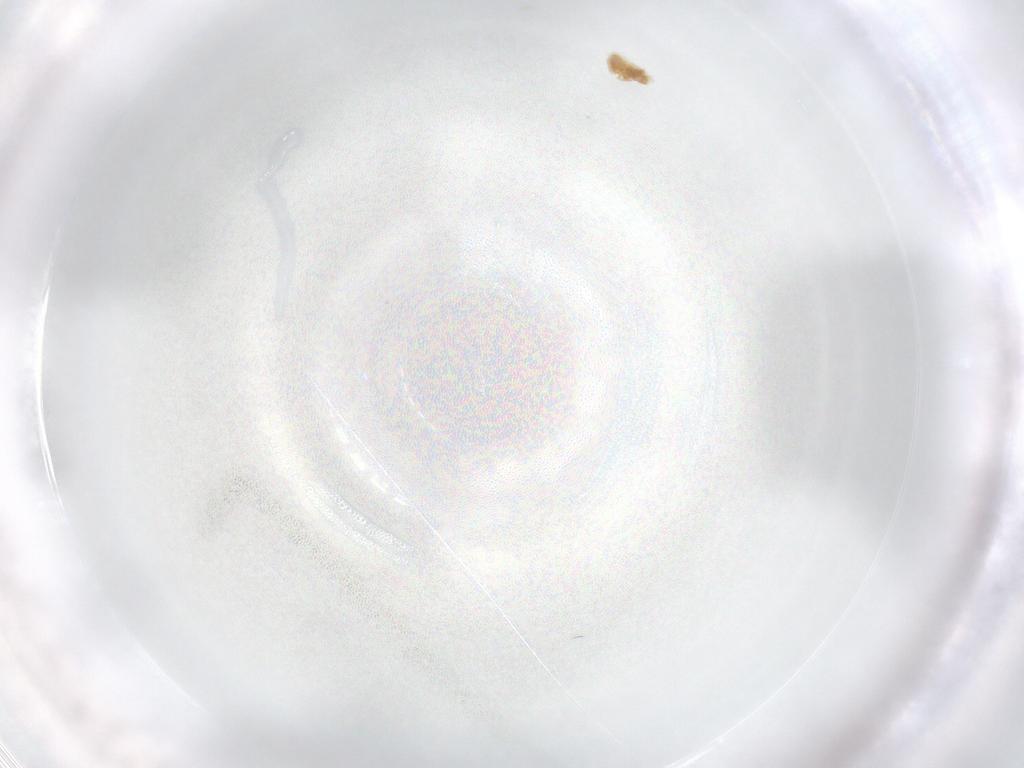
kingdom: Animalia
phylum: Arthropoda
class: Arachnida
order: Trombidiformes
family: Eupodidae
